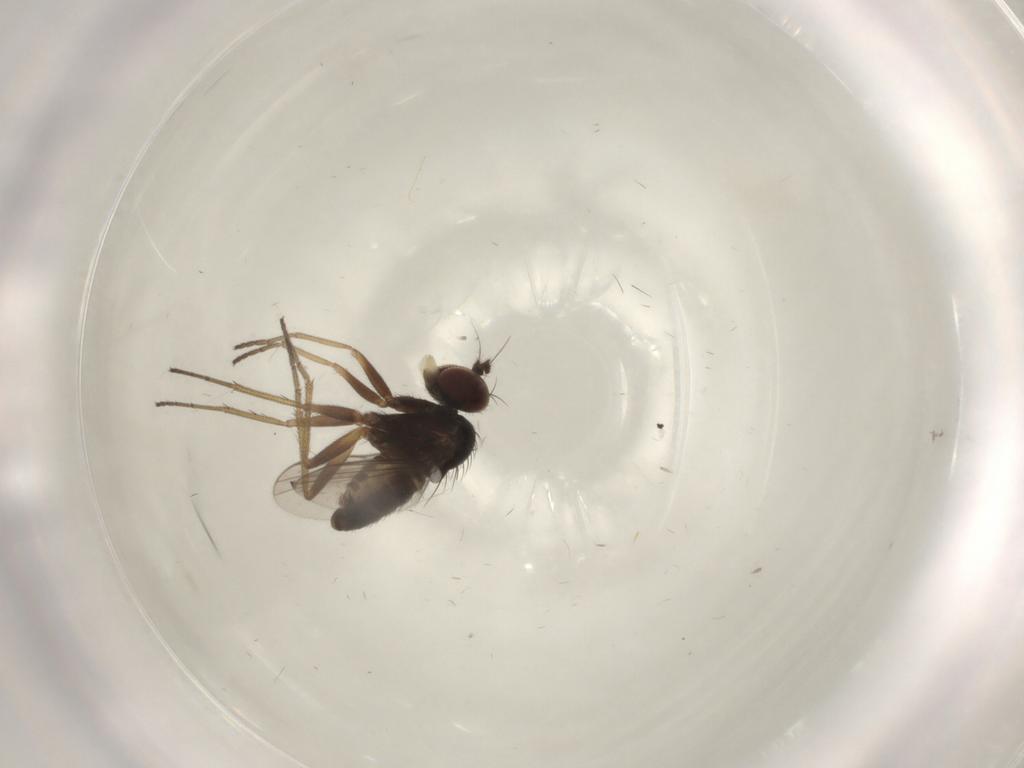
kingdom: Animalia
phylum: Arthropoda
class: Insecta
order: Diptera
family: Dolichopodidae
